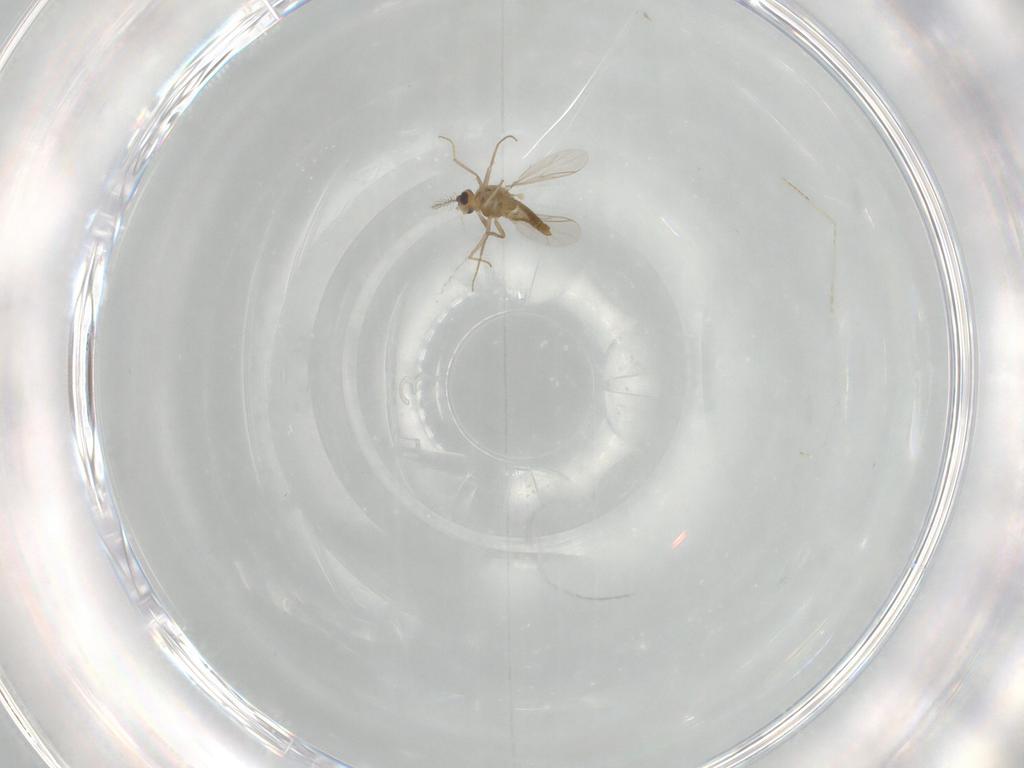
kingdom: Animalia
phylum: Arthropoda
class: Insecta
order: Diptera
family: Chironomidae
